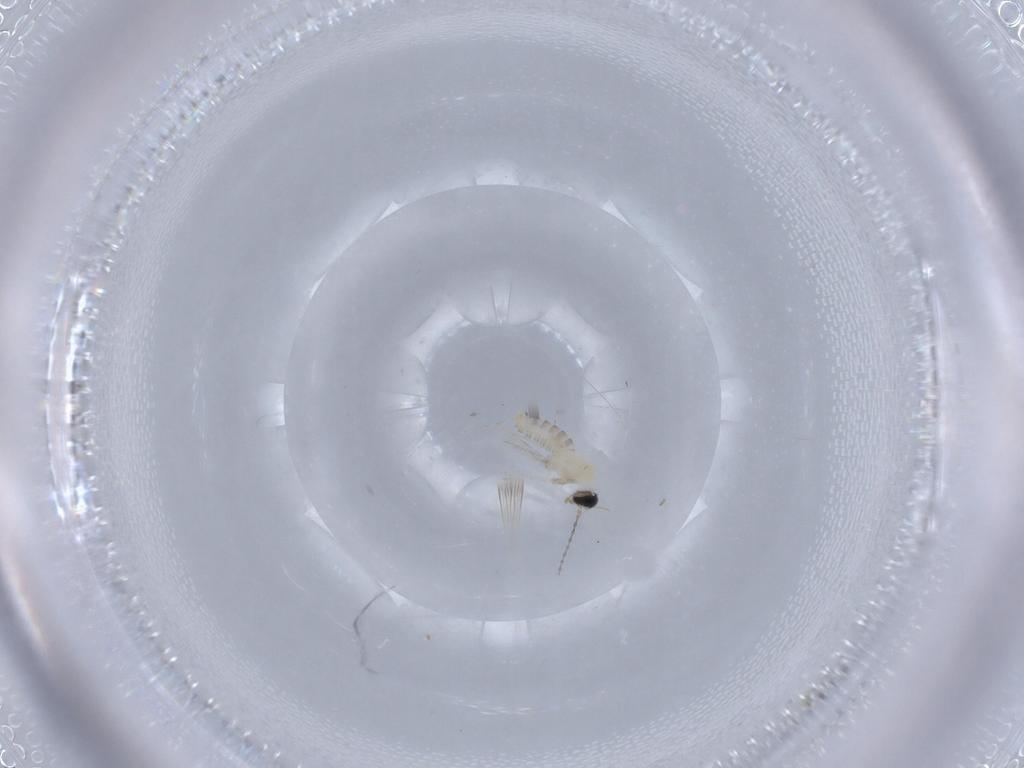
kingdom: Animalia
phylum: Arthropoda
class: Insecta
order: Diptera
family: Cecidomyiidae
